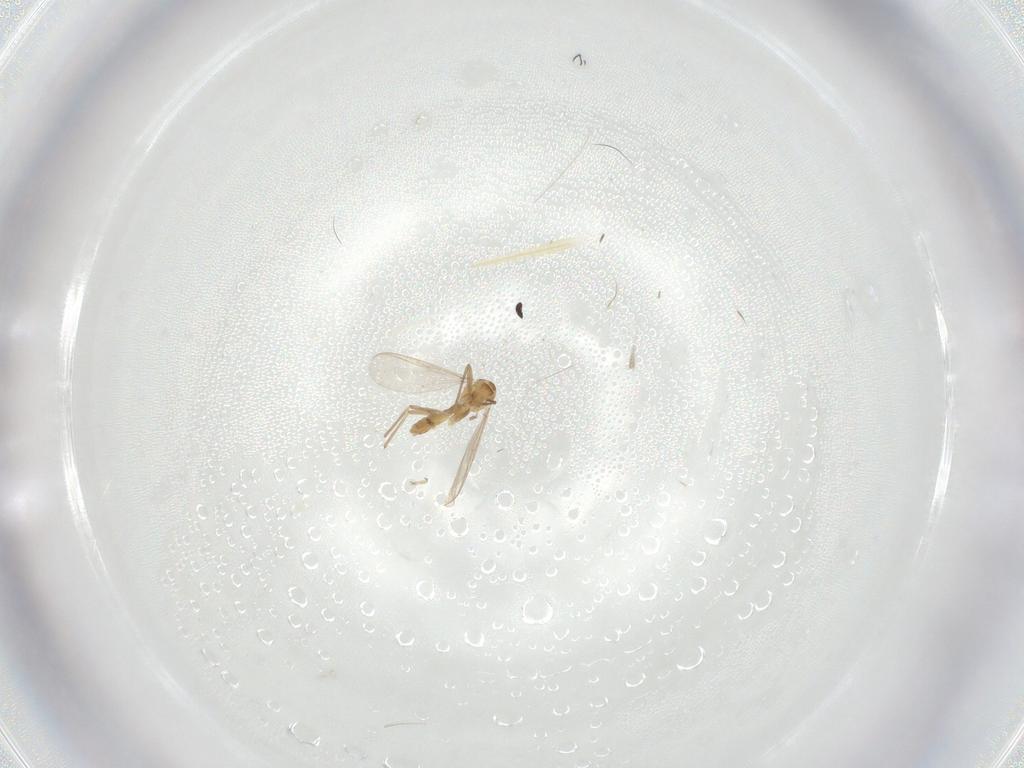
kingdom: Animalia
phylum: Arthropoda
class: Insecta
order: Diptera
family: Chironomidae
